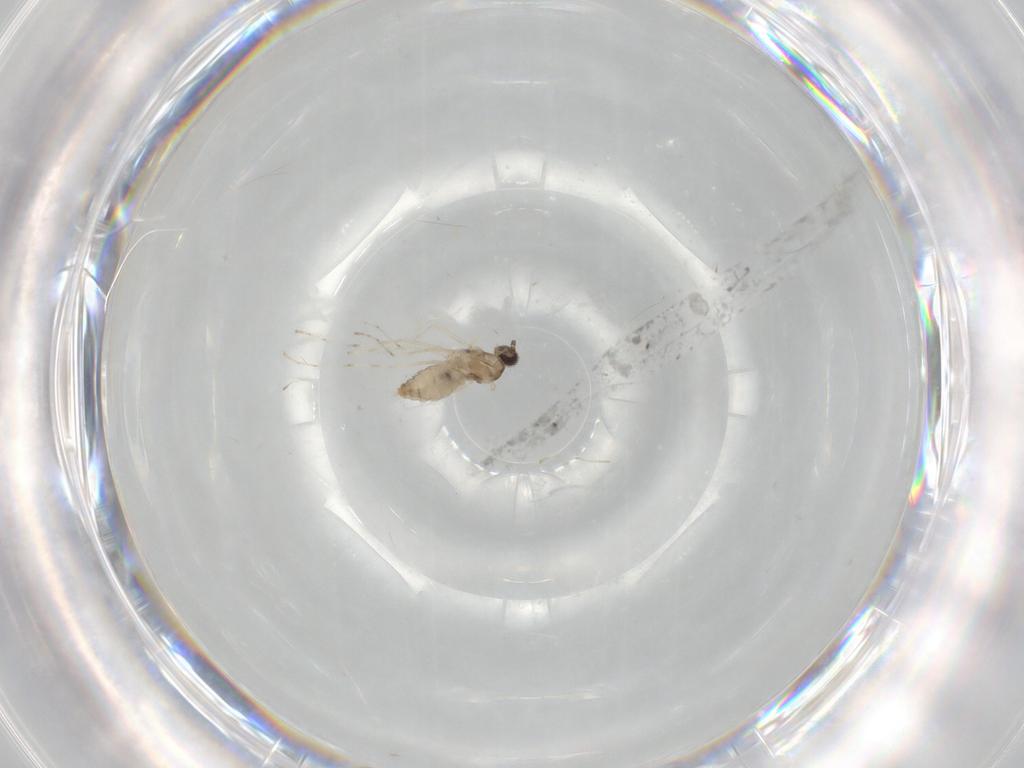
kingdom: Animalia
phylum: Arthropoda
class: Insecta
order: Diptera
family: Cecidomyiidae
